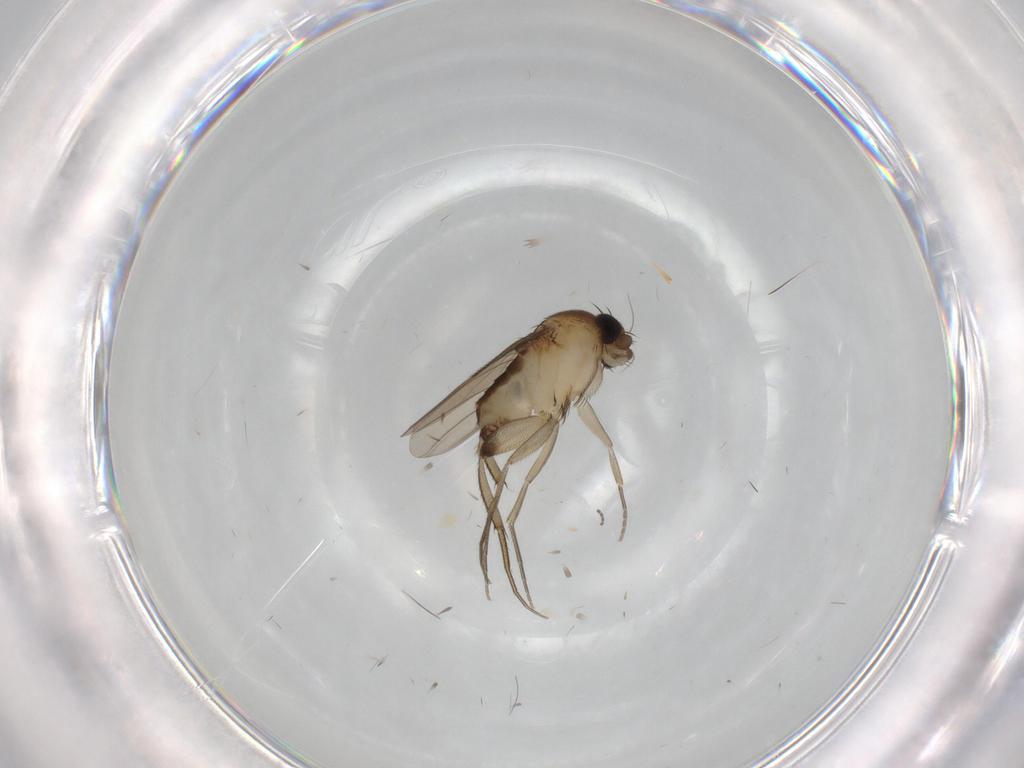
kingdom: Animalia
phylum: Arthropoda
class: Insecta
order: Diptera
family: Phoridae
